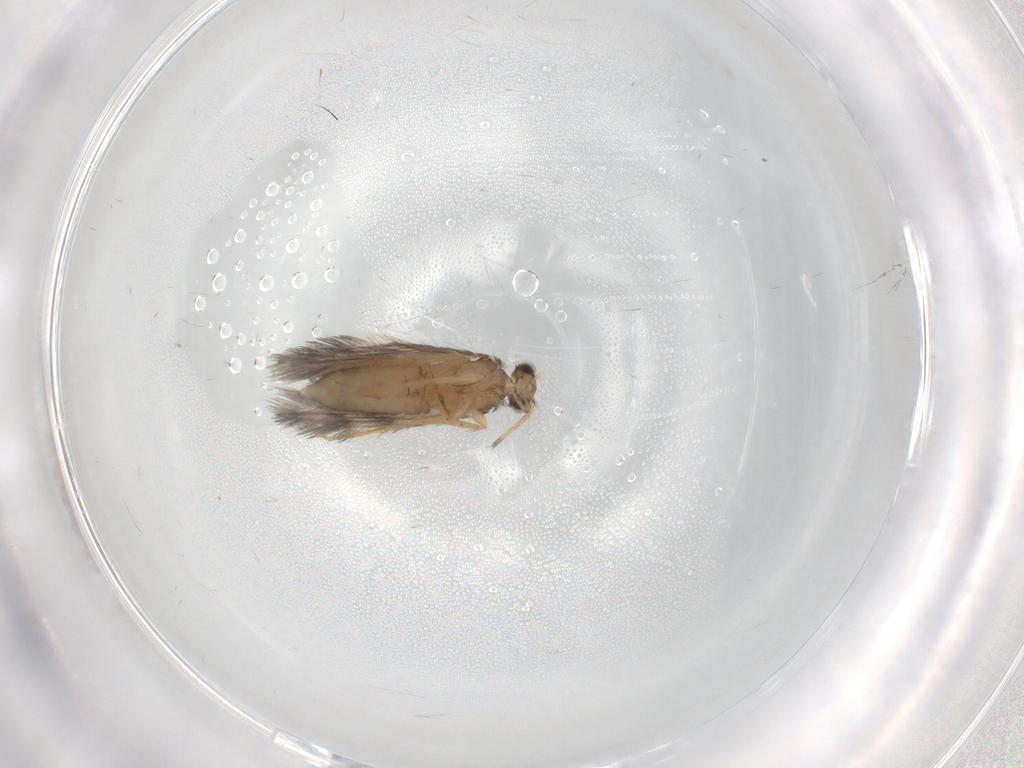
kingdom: Animalia
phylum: Arthropoda
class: Insecta
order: Trichoptera
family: Hydroptilidae
